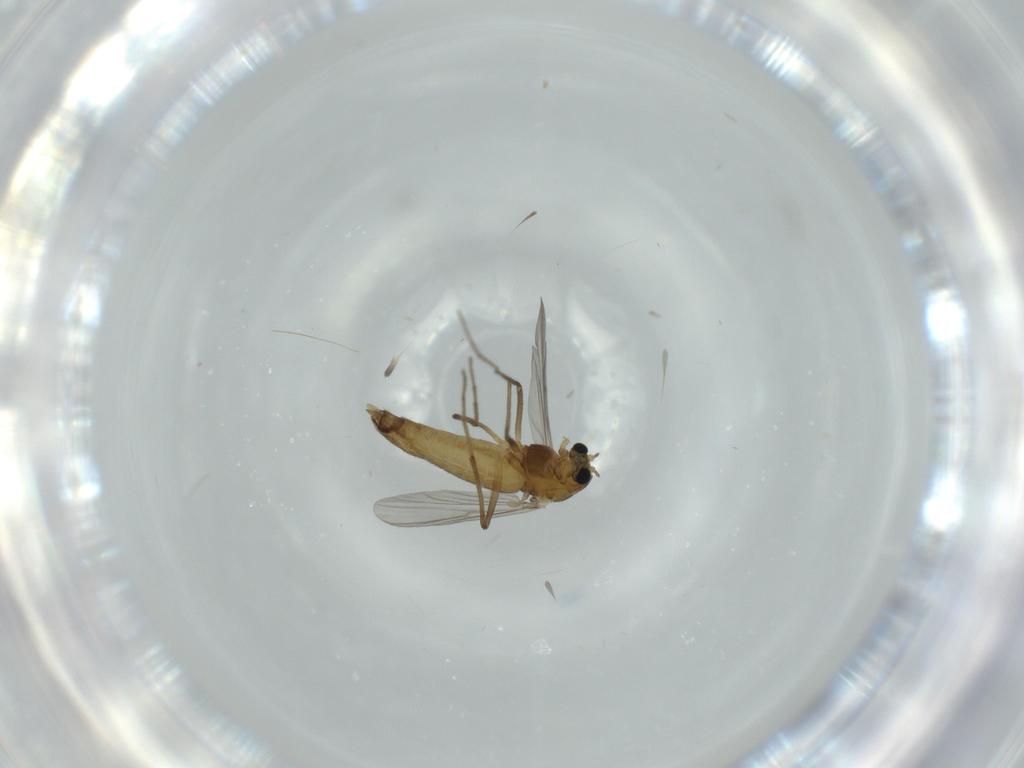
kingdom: Animalia
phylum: Arthropoda
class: Insecta
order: Diptera
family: Chironomidae
